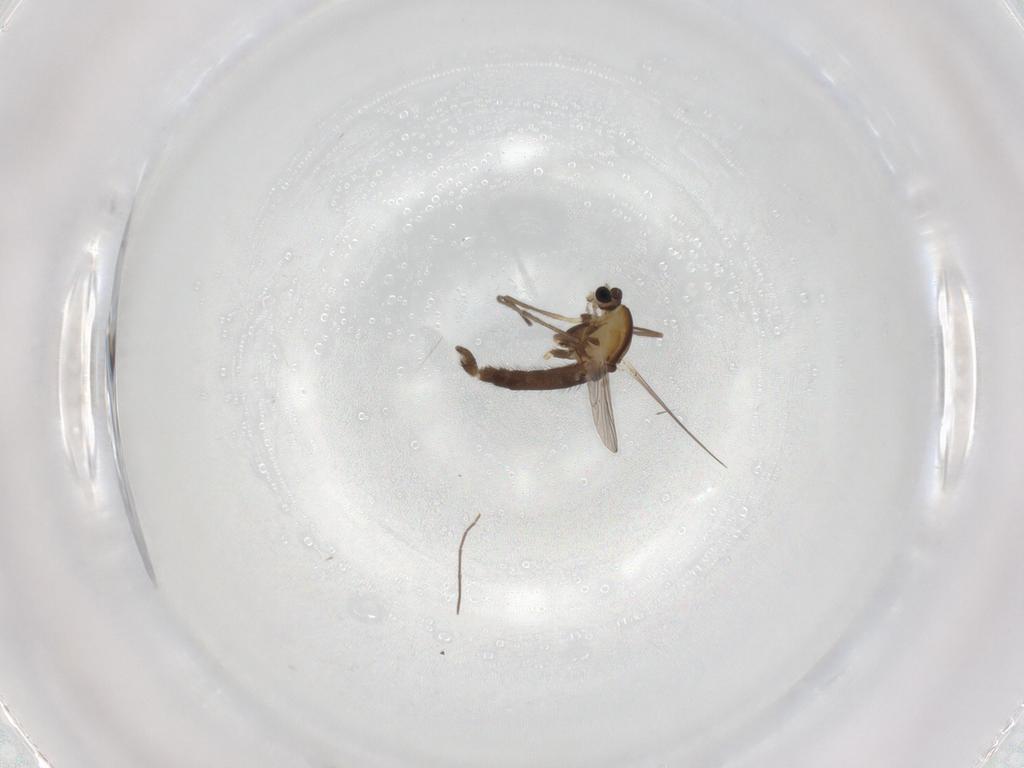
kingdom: Animalia
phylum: Arthropoda
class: Insecta
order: Diptera
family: Chironomidae
